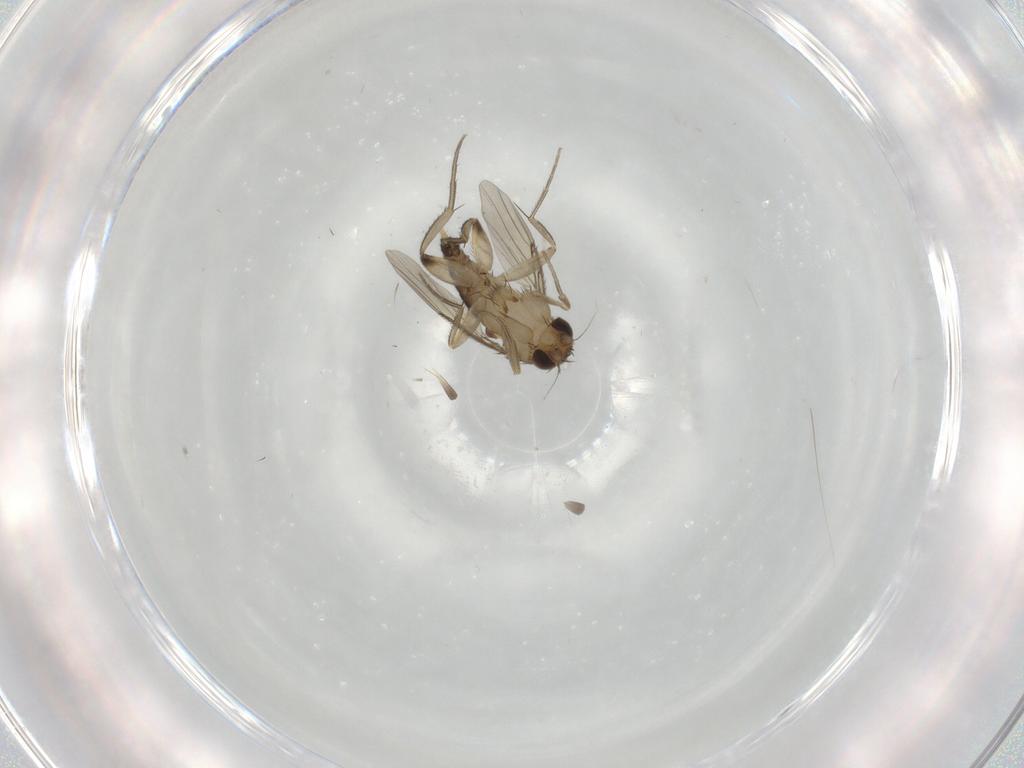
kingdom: Animalia
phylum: Arthropoda
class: Insecta
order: Diptera
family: Phoridae
